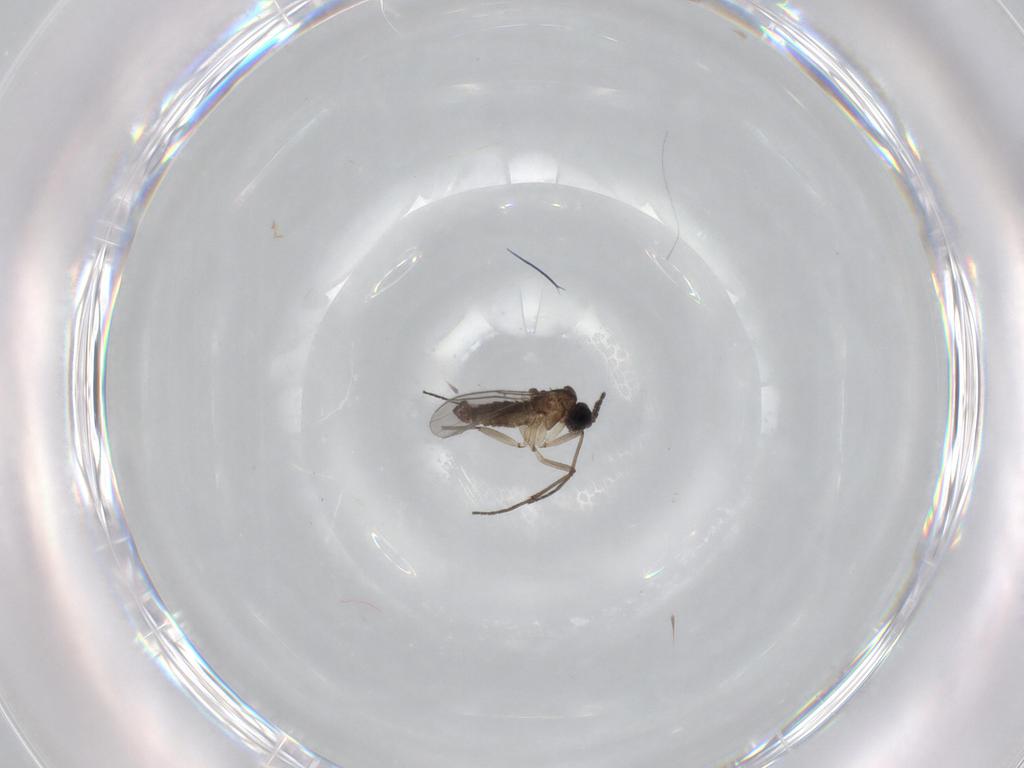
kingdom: Animalia
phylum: Arthropoda
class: Insecta
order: Diptera
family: Sciaridae
